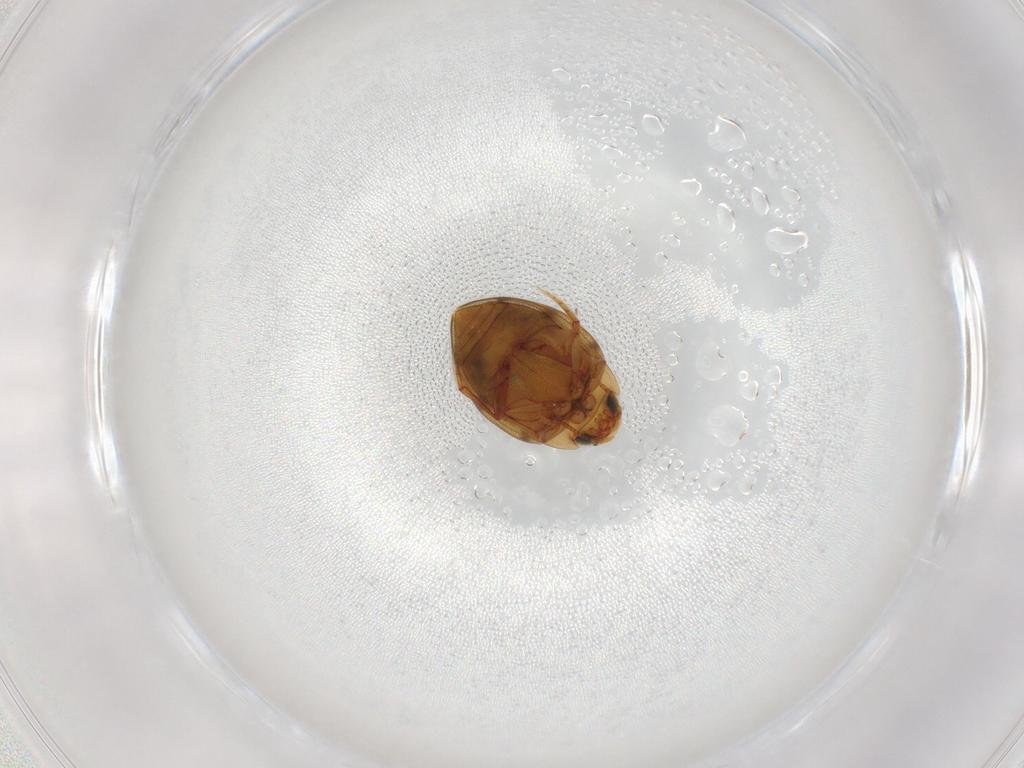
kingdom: Animalia
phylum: Arthropoda
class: Insecta
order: Coleoptera
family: Dytiscidae
